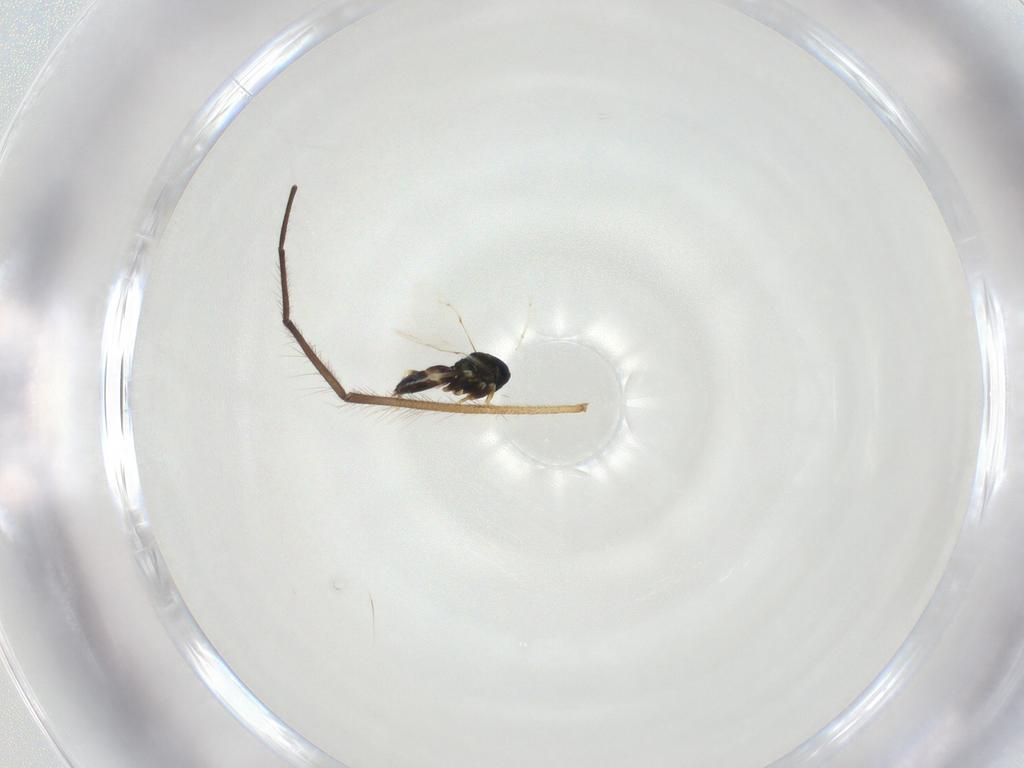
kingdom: Animalia
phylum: Arthropoda
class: Insecta
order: Hymenoptera
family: Pteromalidae
